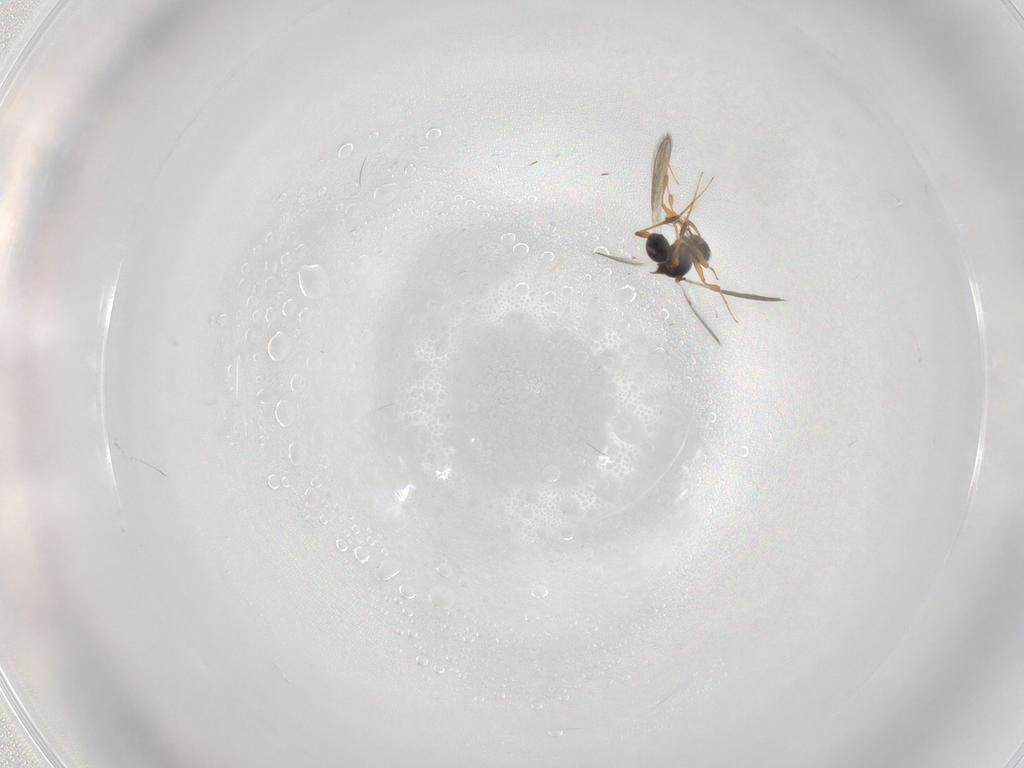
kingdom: Animalia
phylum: Arthropoda
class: Insecta
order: Hymenoptera
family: Platygastridae
